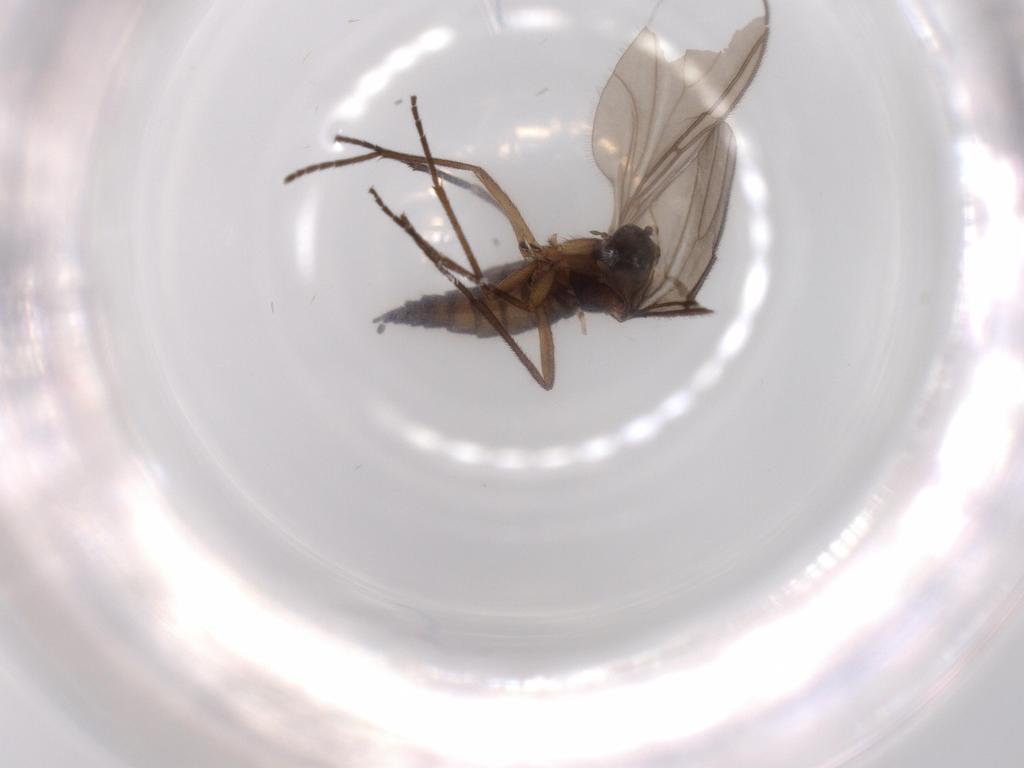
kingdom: Animalia
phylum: Arthropoda
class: Insecta
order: Diptera
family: Sciaridae
